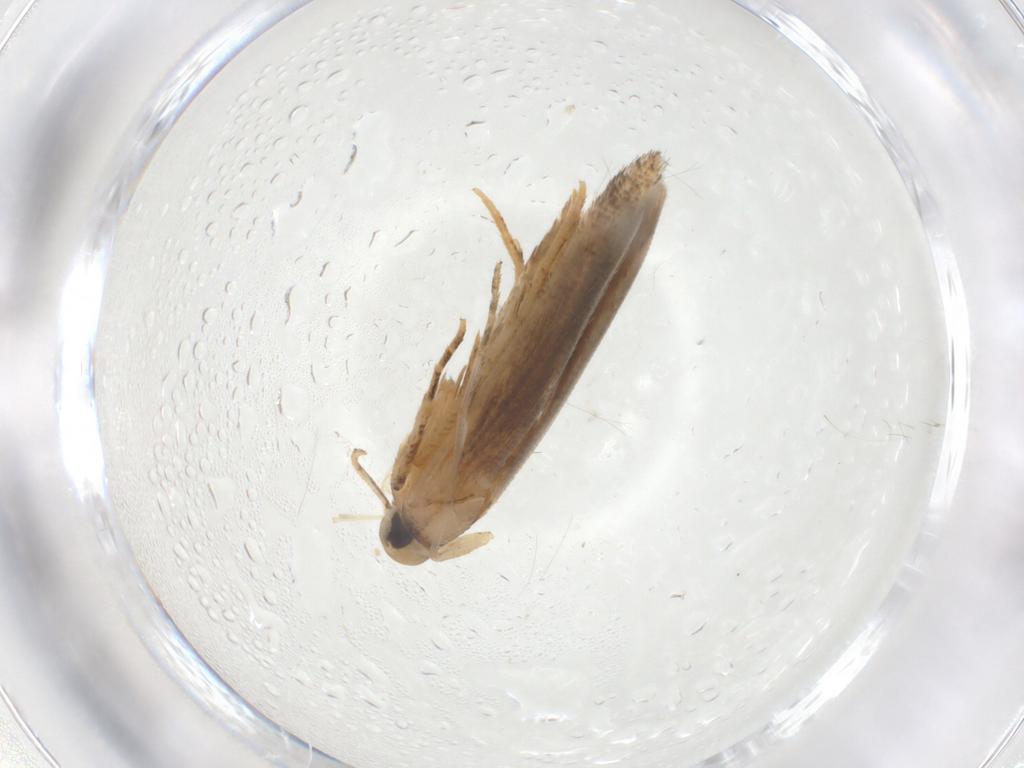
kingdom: Animalia
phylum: Arthropoda
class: Insecta
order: Lepidoptera
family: Cosmopterigidae
